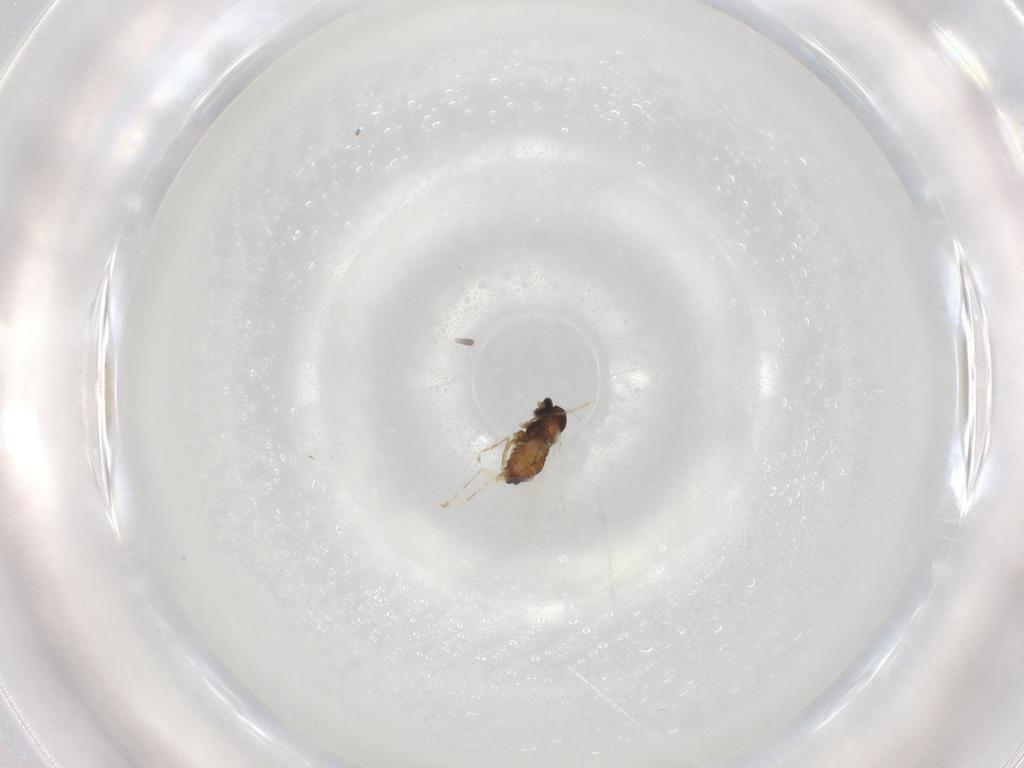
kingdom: Animalia
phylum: Arthropoda
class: Insecta
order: Diptera
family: Cecidomyiidae
